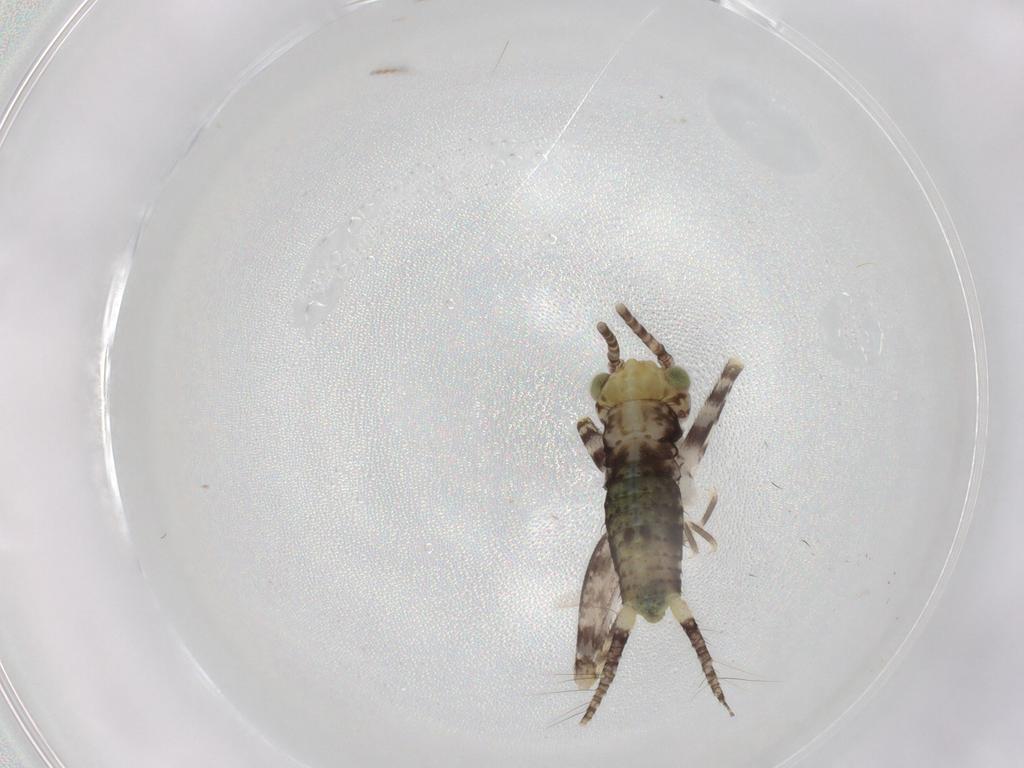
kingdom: Animalia
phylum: Arthropoda
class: Insecta
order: Orthoptera
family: Gryllidae
